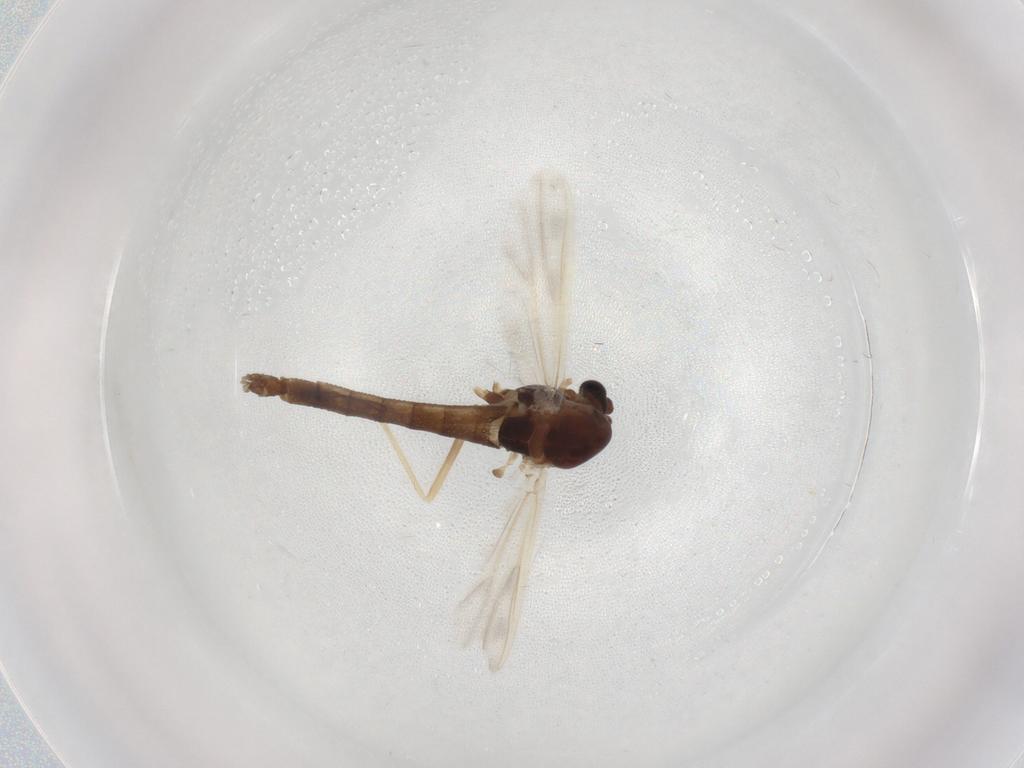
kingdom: Animalia
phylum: Arthropoda
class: Insecta
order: Diptera
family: Chironomidae
